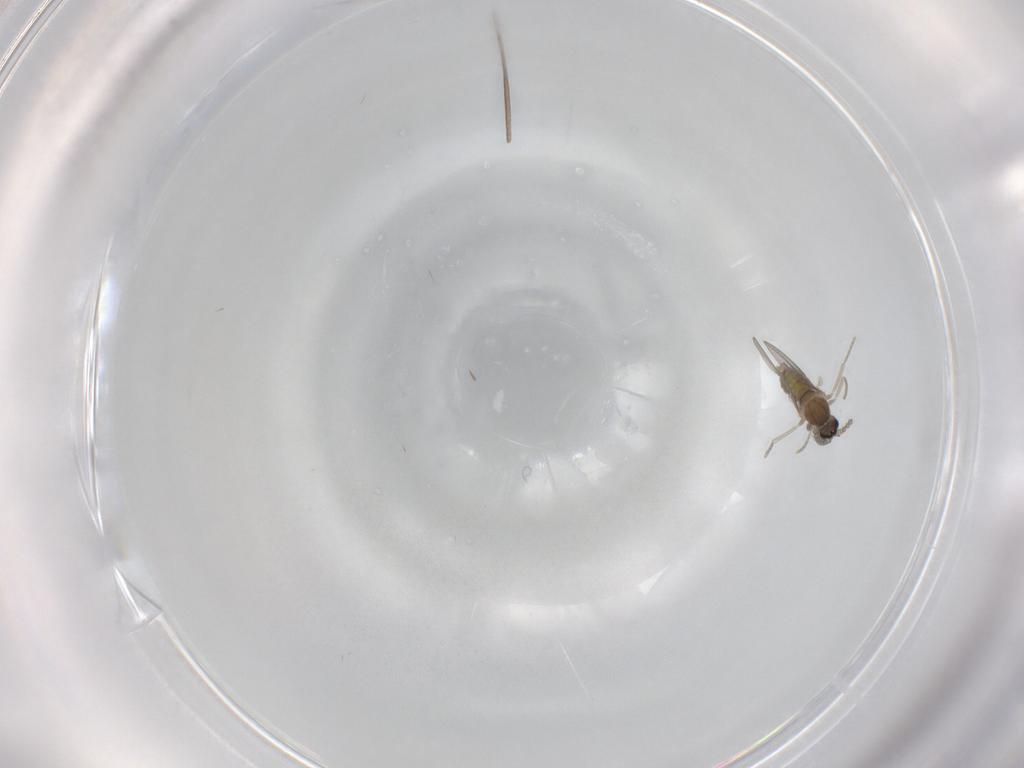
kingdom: Animalia
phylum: Arthropoda
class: Insecta
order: Diptera
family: Cecidomyiidae
